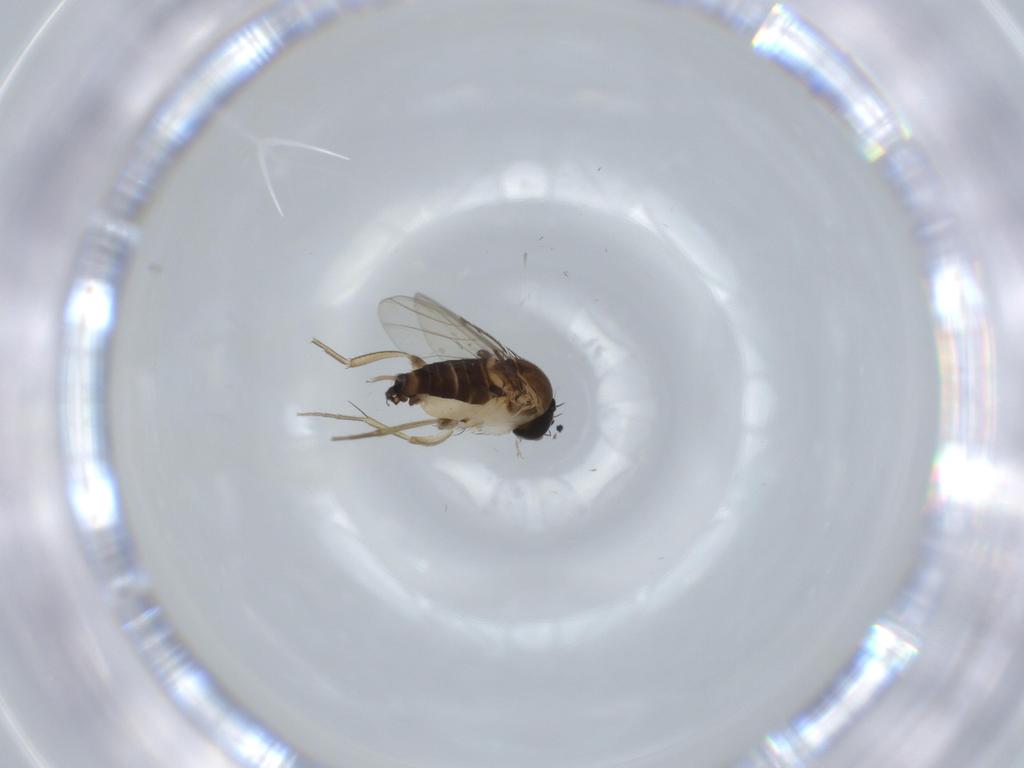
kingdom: Animalia
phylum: Arthropoda
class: Insecta
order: Diptera
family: Phoridae
